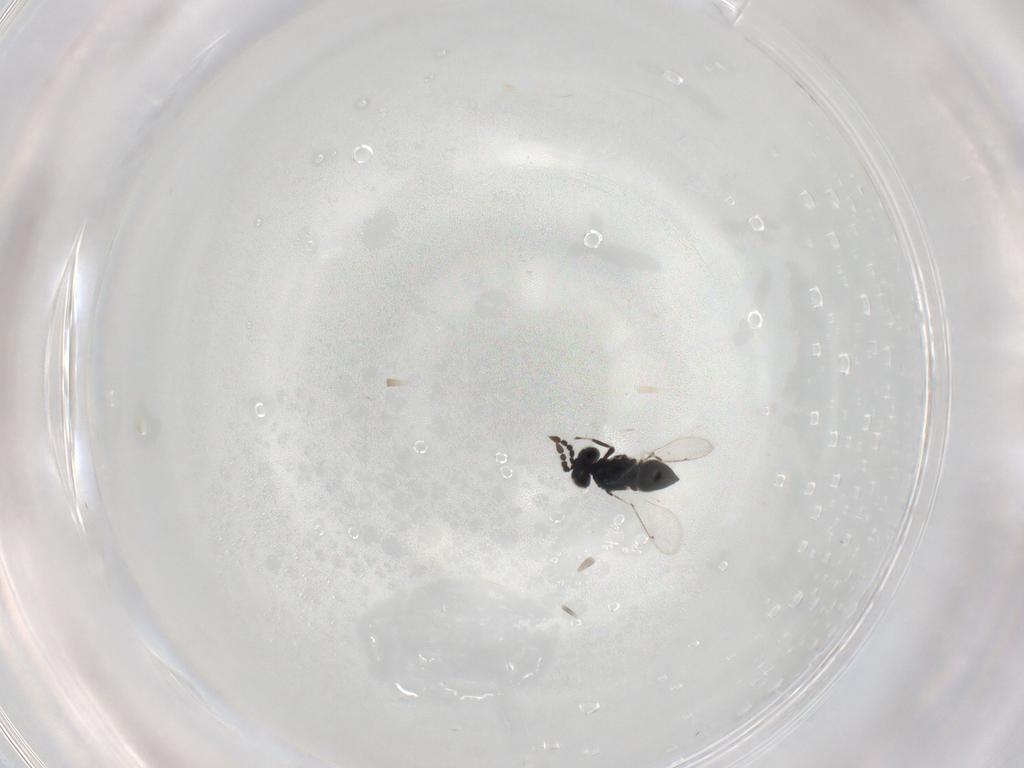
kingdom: Animalia
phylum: Arthropoda
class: Insecta
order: Hymenoptera
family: Eulophidae
